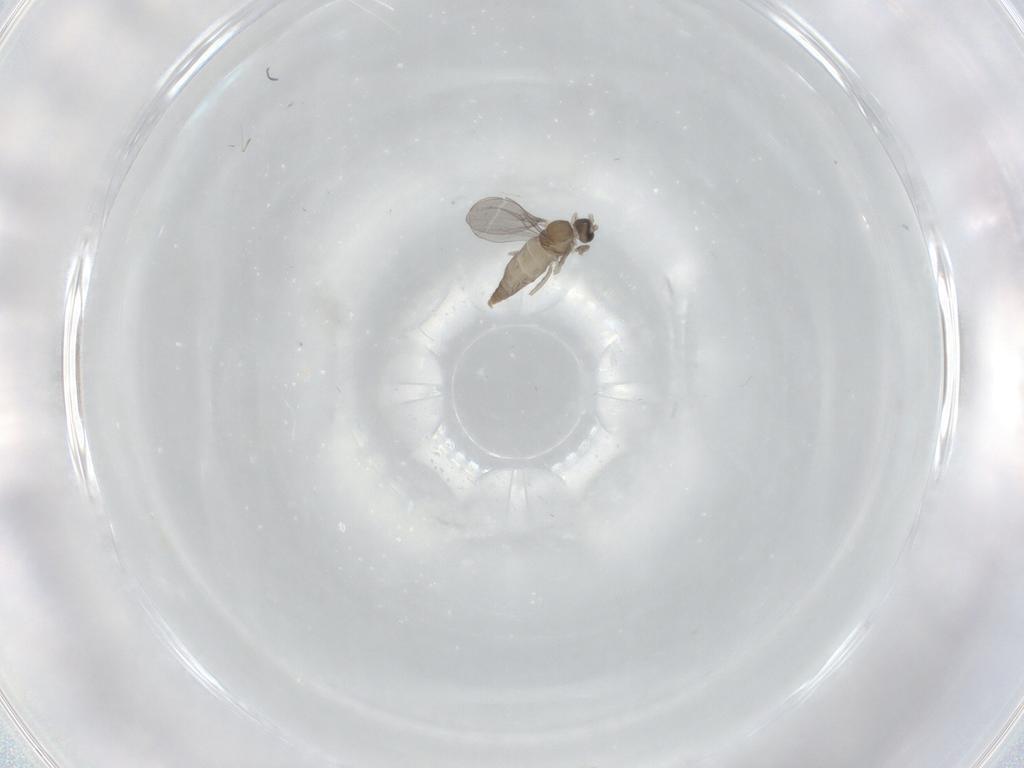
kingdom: Animalia
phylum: Arthropoda
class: Insecta
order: Diptera
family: Cecidomyiidae
